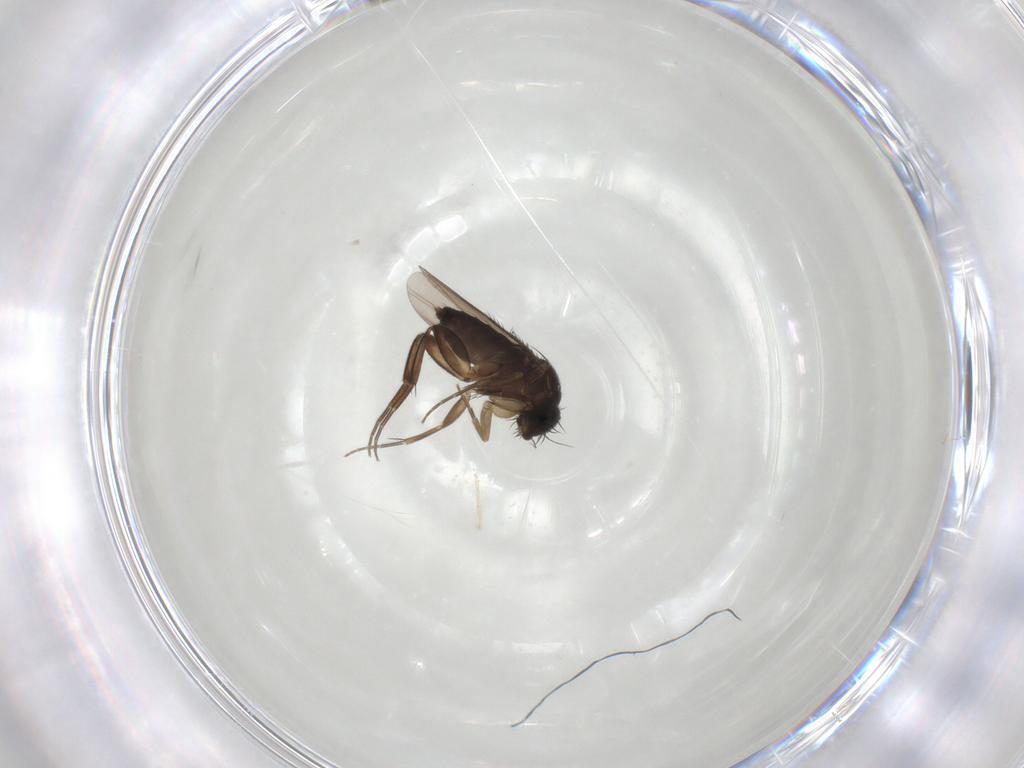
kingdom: Animalia
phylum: Arthropoda
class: Insecta
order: Diptera
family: Phoridae
